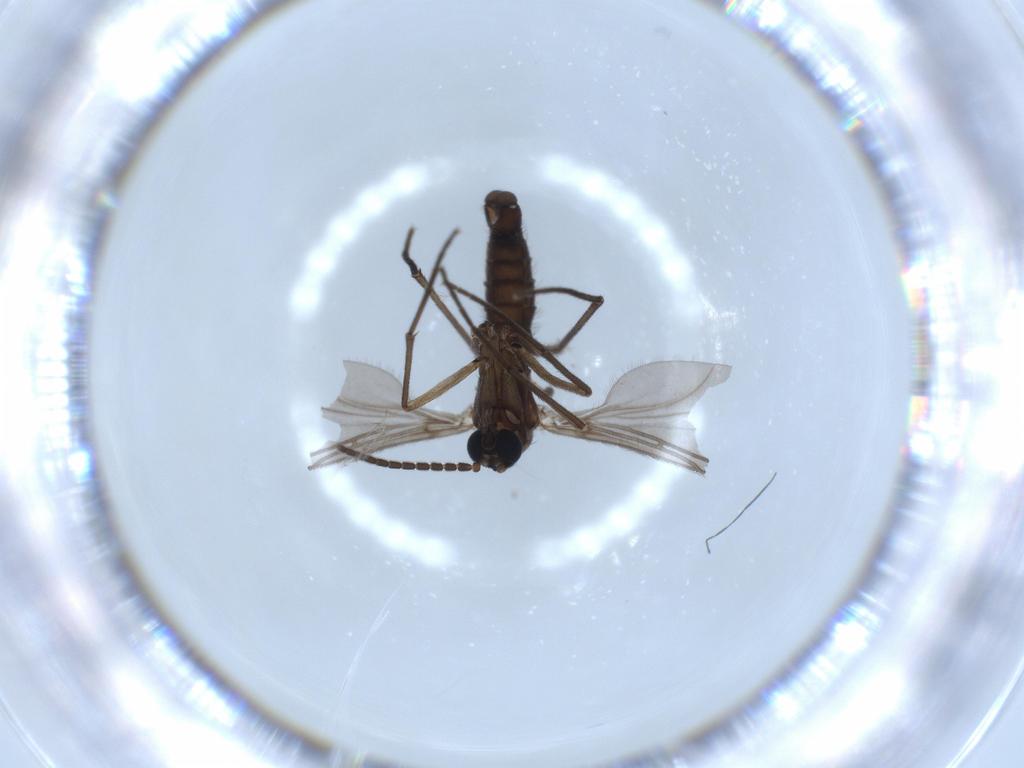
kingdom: Animalia
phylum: Arthropoda
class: Insecta
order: Diptera
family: Sciaridae
